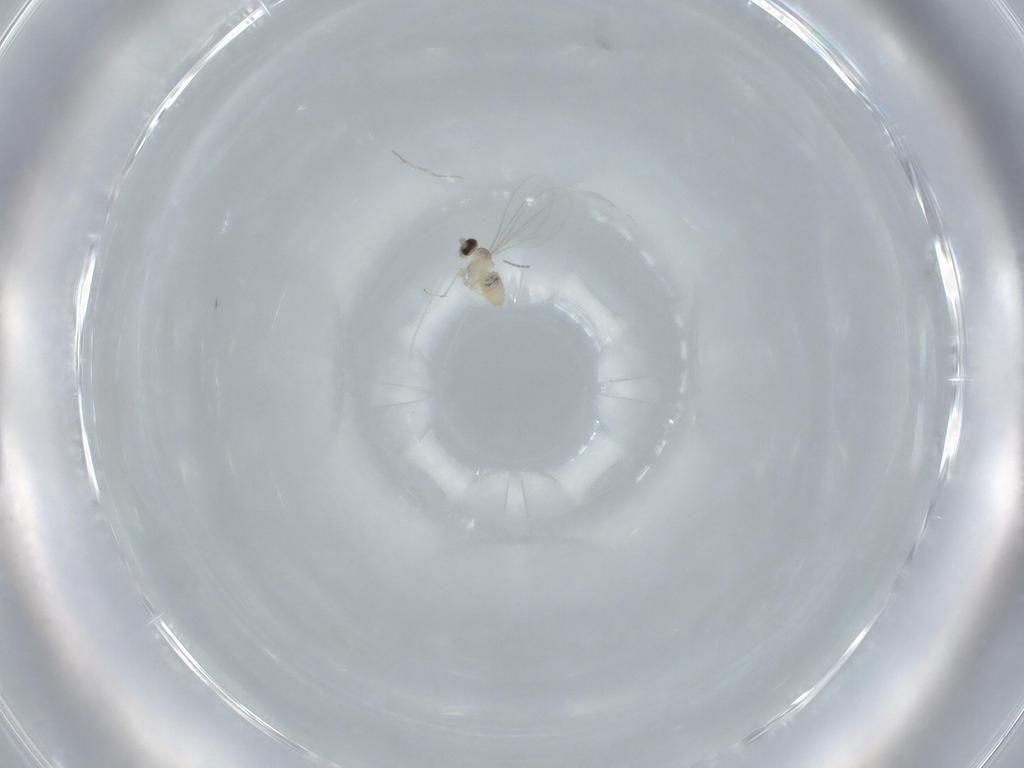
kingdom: Animalia
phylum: Arthropoda
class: Insecta
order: Diptera
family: Cecidomyiidae
